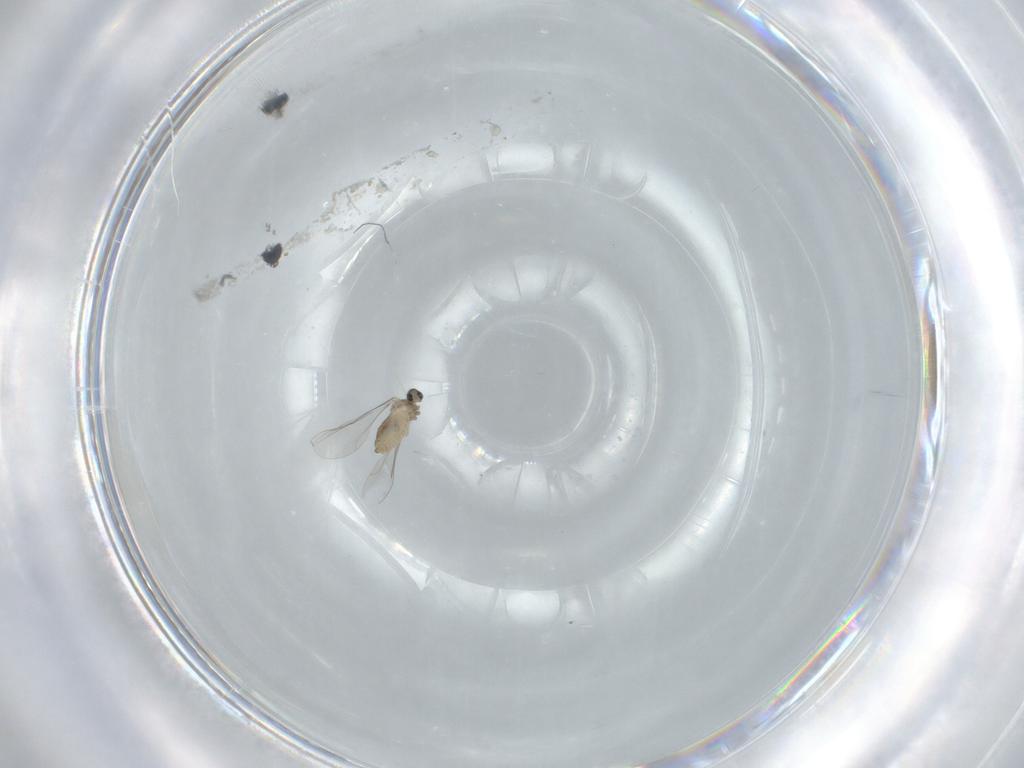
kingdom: Animalia
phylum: Arthropoda
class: Insecta
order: Diptera
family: Cecidomyiidae
